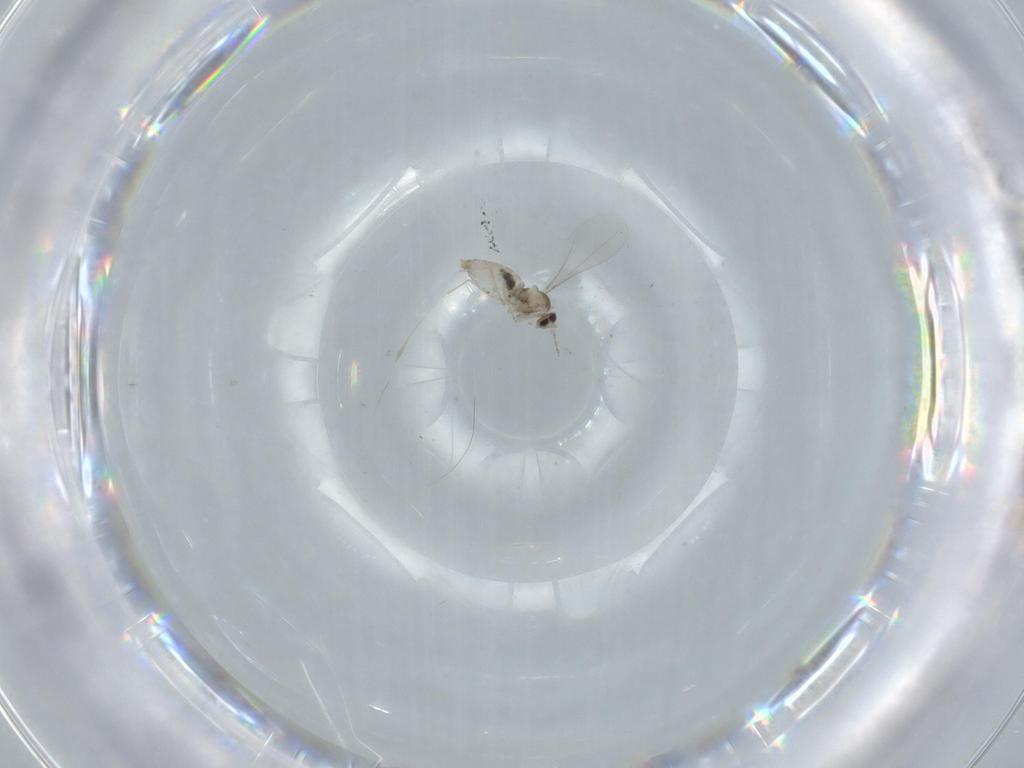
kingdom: Animalia
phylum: Arthropoda
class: Insecta
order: Diptera
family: Cecidomyiidae
